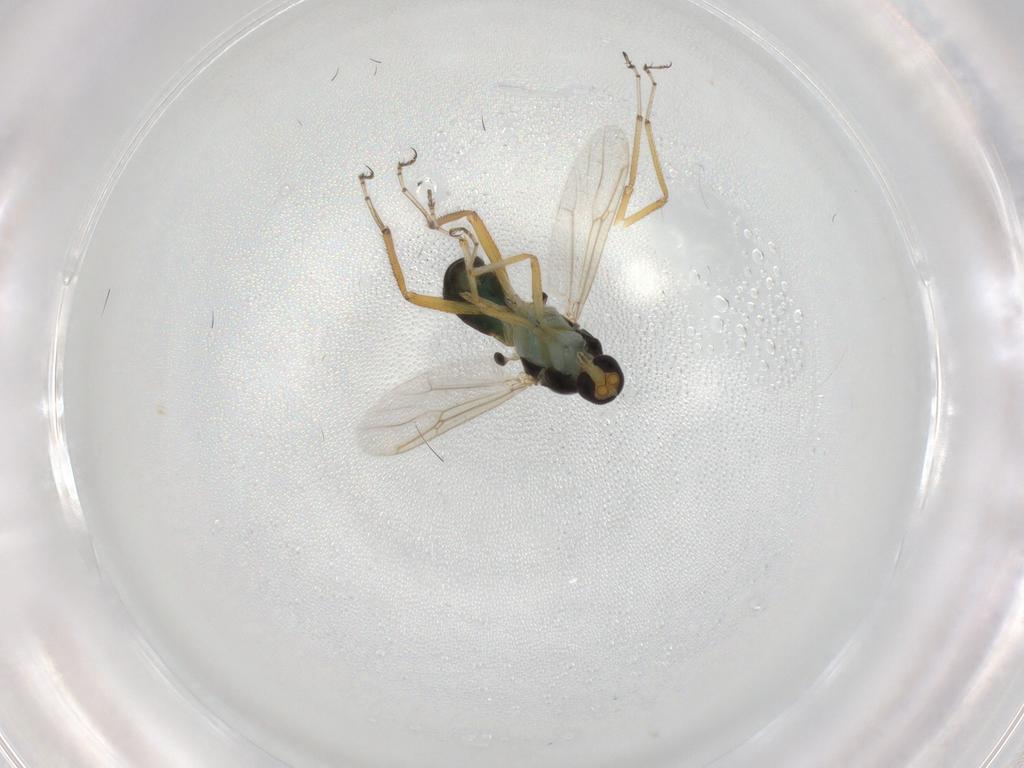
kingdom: Animalia
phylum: Arthropoda
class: Insecta
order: Diptera
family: Ceratopogonidae
